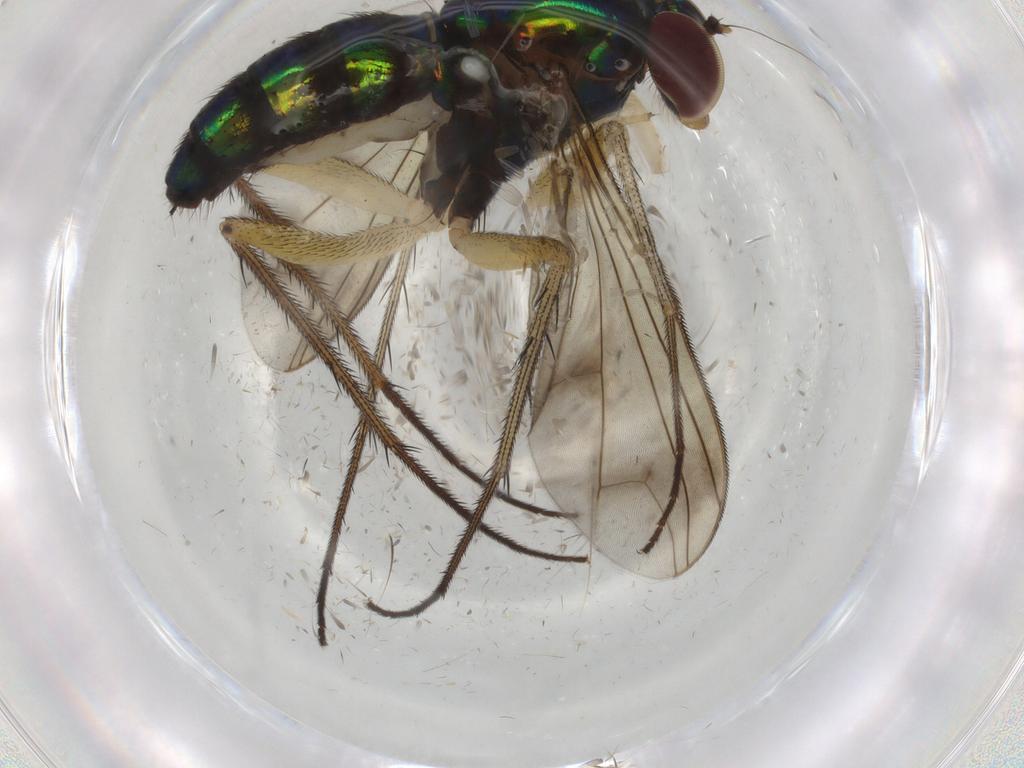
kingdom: Animalia
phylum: Arthropoda
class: Insecta
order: Diptera
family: Dolichopodidae
